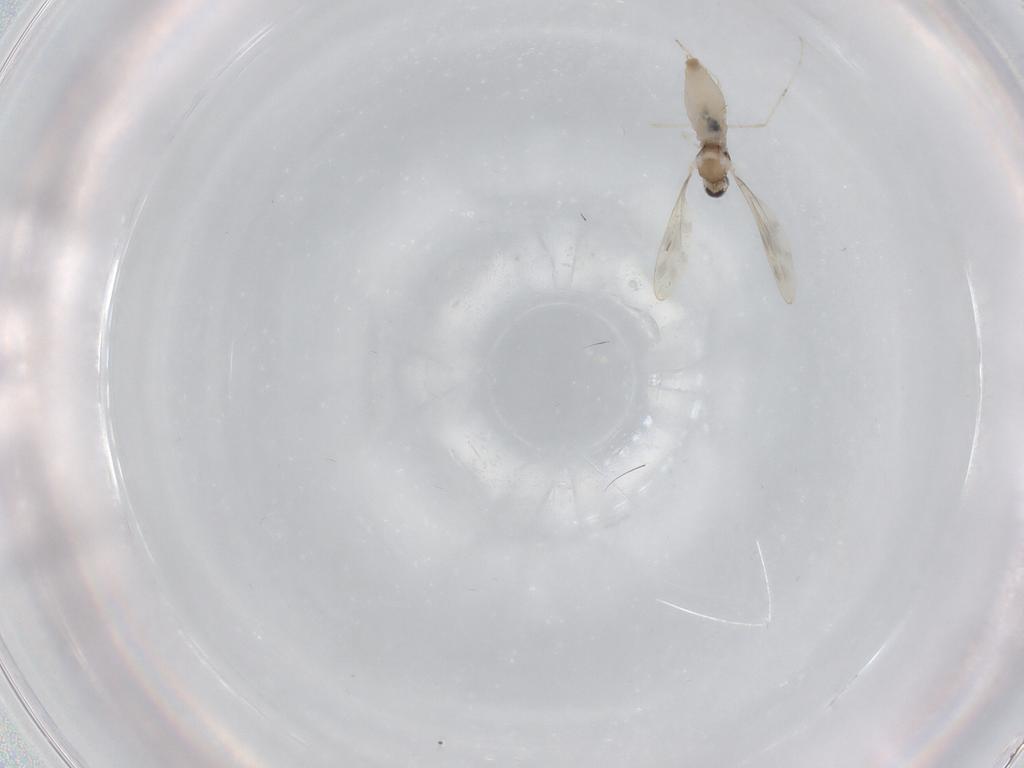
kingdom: Animalia
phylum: Arthropoda
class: Insecta
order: Diptera
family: Cecidomyiidae
